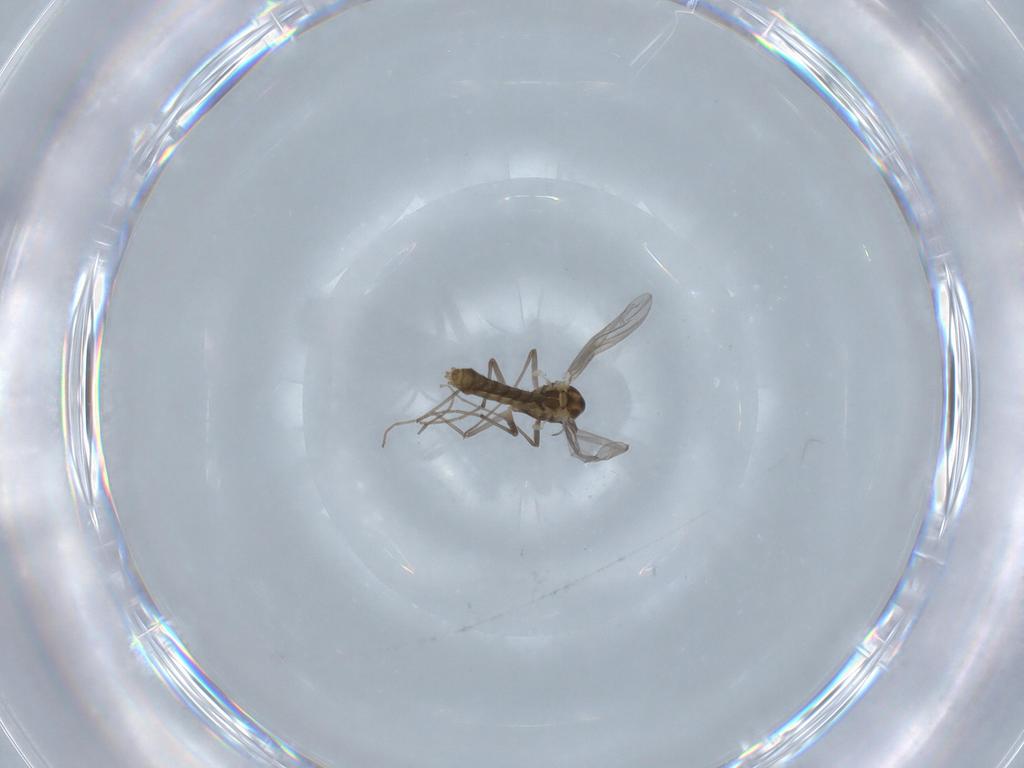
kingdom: Animalia
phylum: Arthropoda
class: Insecta
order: Diptera
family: Chironomidae
